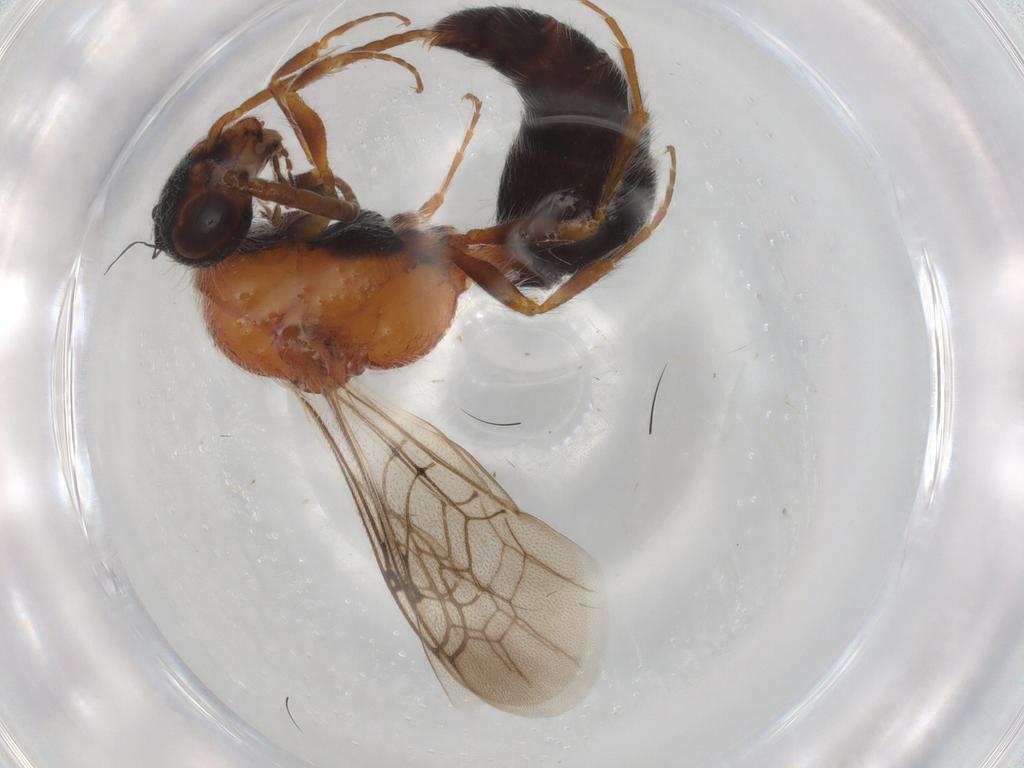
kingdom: Animalia
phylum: Arthropoda
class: Insecta
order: Hymenoptera
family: Mutillidae
